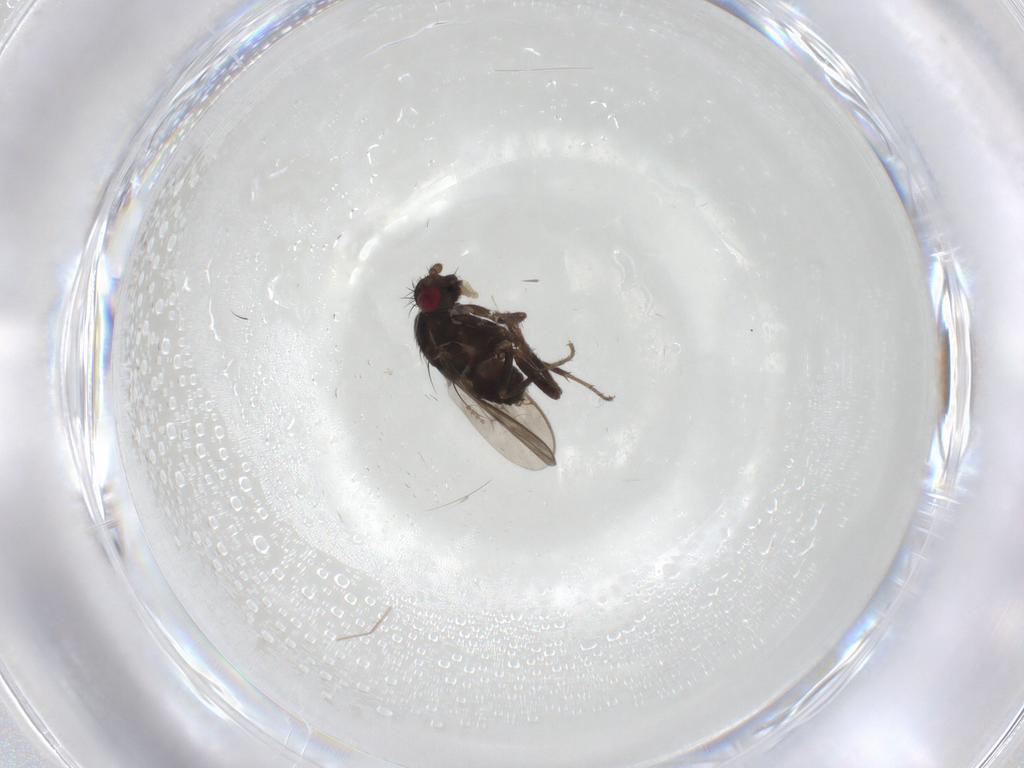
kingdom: Animalia
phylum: Arthropoda
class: Insecta
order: Diptera
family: Sphaeroceridae
